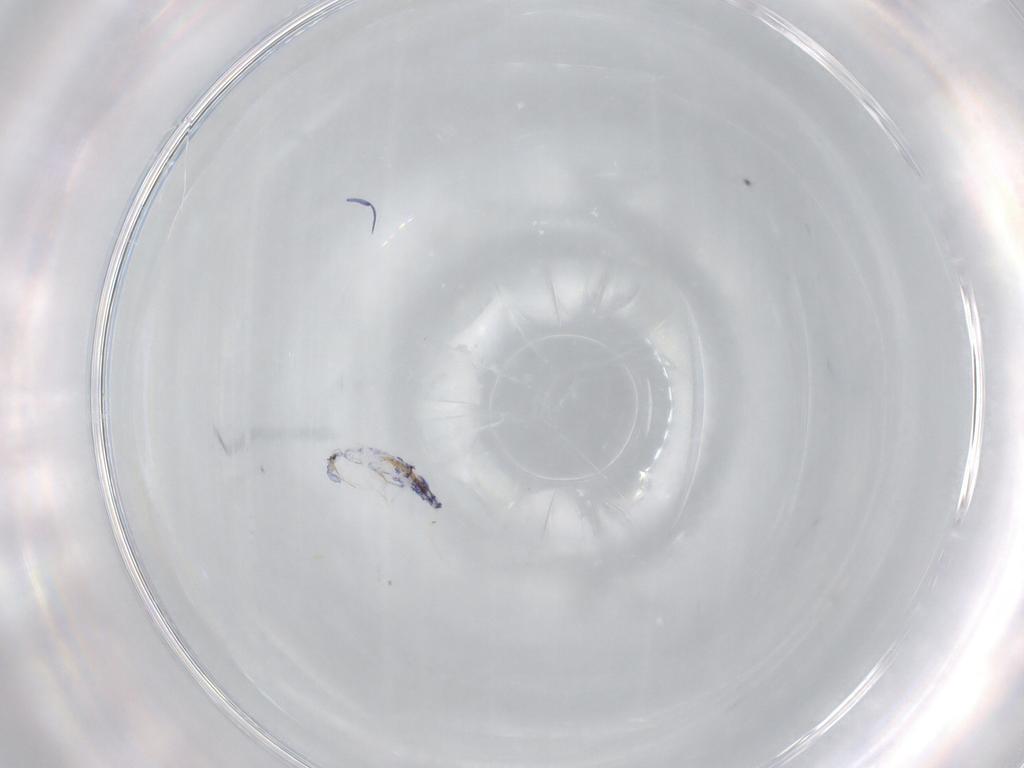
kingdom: Animalia
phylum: Arthropoda
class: Collembola
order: Entomobryomorpha
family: Entomobryidae
